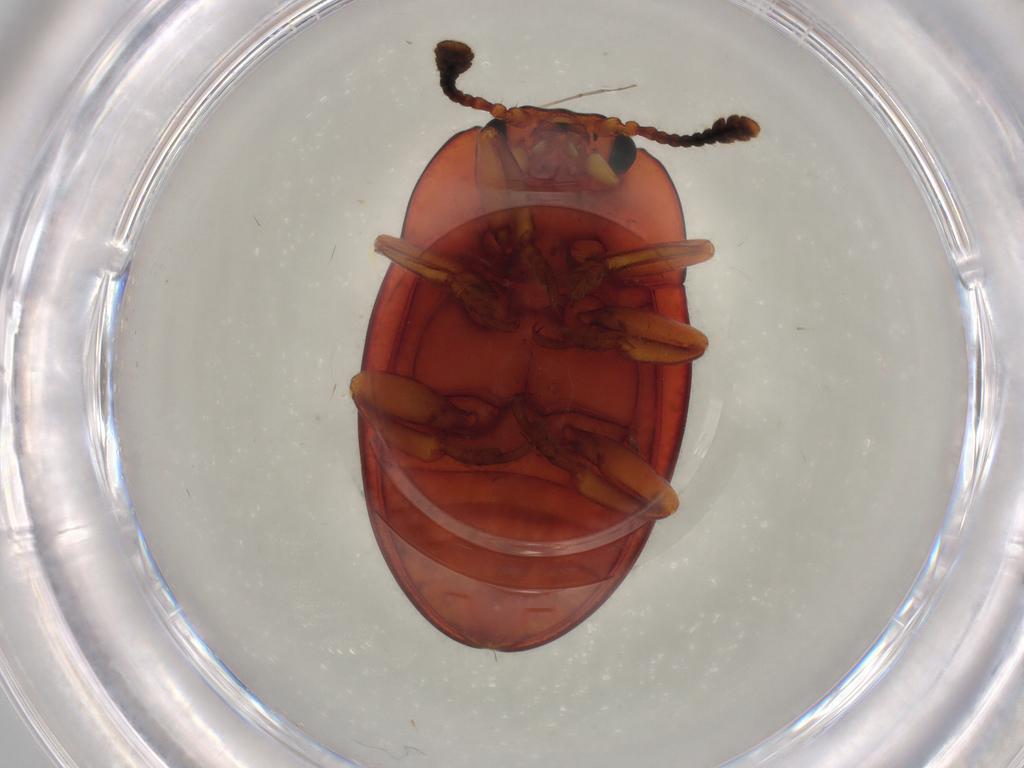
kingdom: Animalia
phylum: Arthropoda
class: Insecta
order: Coleoptera
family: Erotylidae
